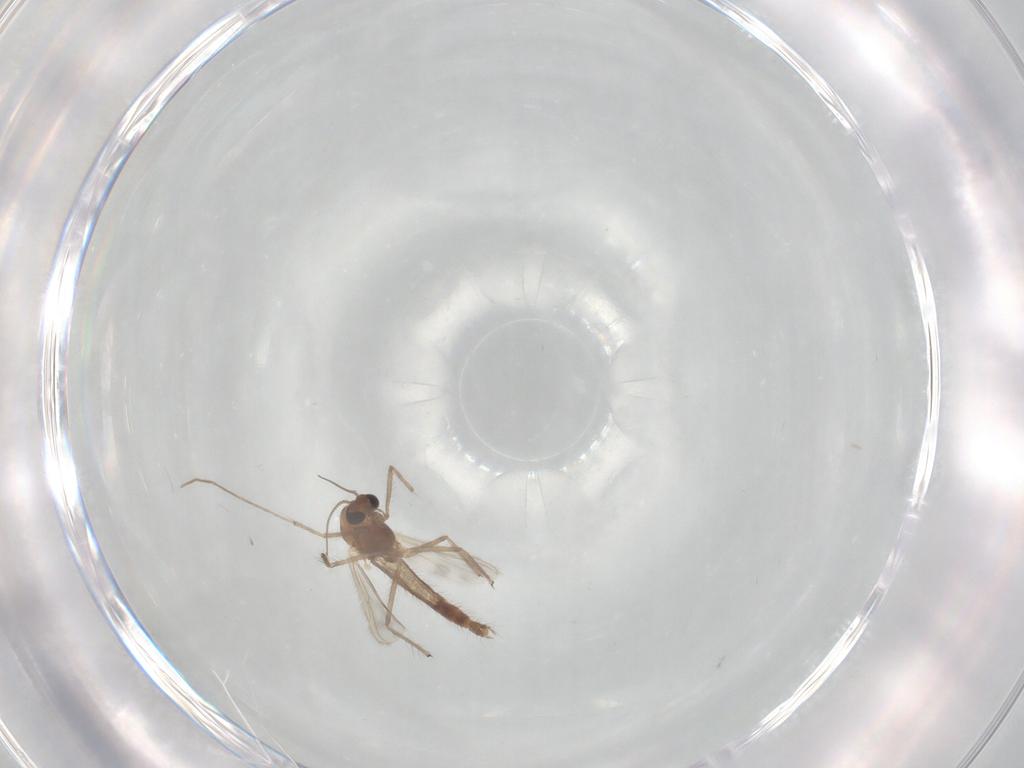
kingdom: Animalia
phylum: Arthropoda
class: Insecta
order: Diptera
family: Chironomidae
